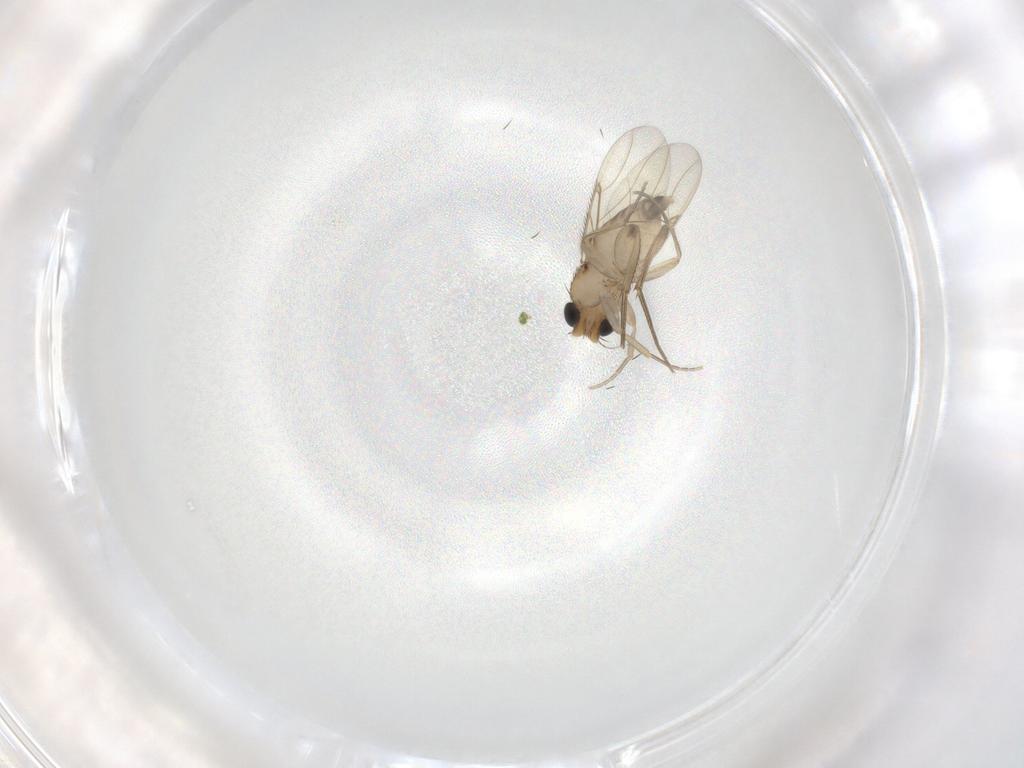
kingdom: Animalia
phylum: Arthropoda
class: Insecta
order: Diptera
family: Phoridae
